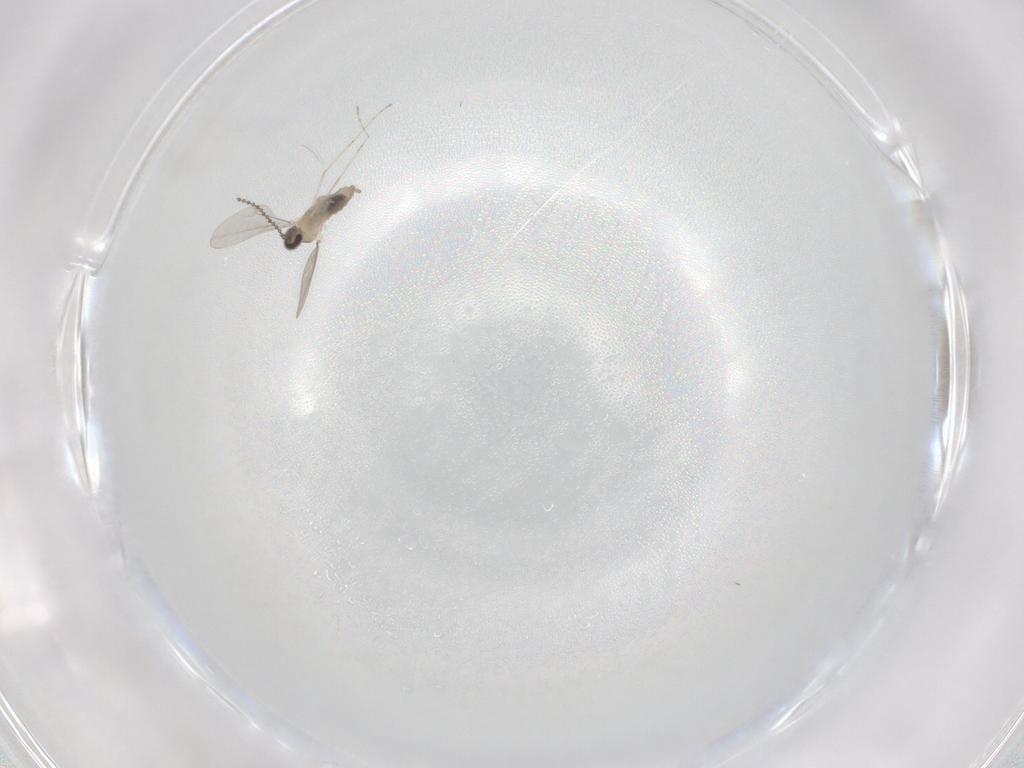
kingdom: Animalia
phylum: Arthropoda
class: Insecta
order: Diptera
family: Cecidomyiidae
